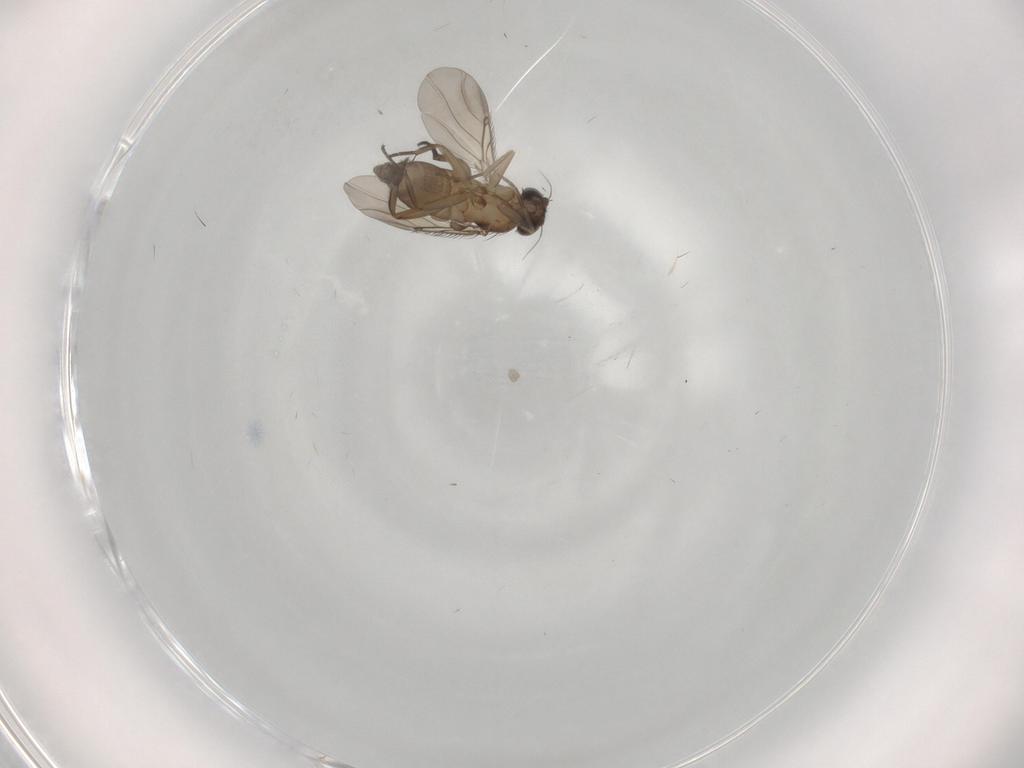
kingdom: Animalia
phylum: Arthropoda
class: Insecta
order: Diptera
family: Phoridae
